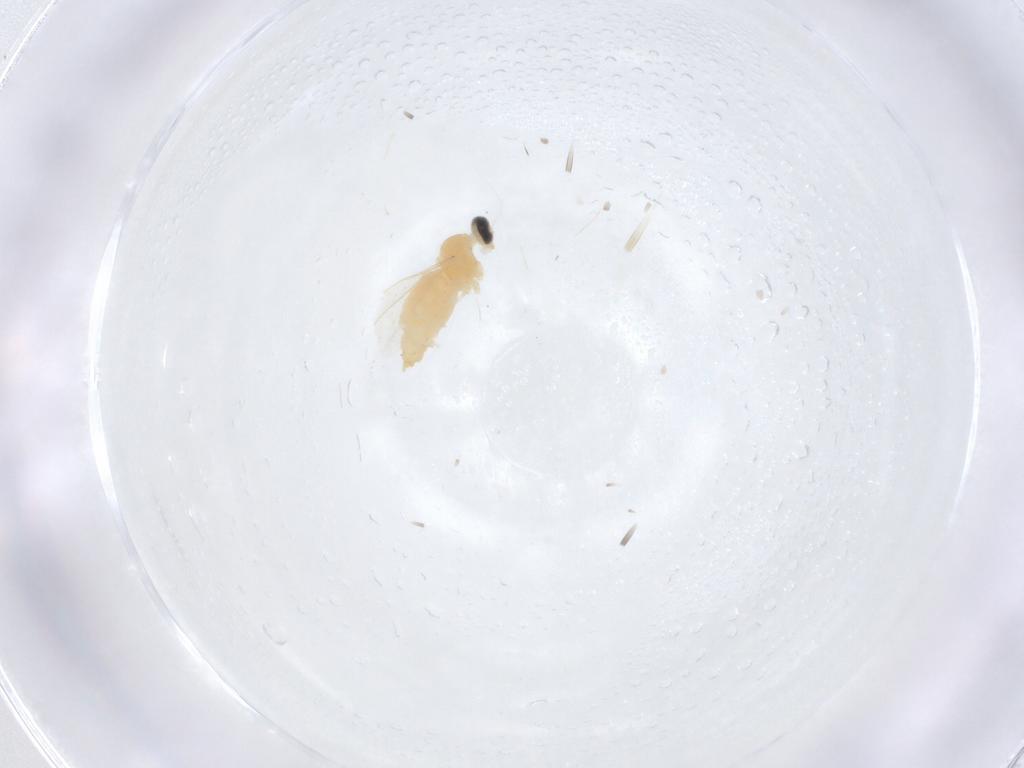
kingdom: Animalia
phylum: Arthropoda
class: Insecta
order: Diptera
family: Cecidomyiidae
